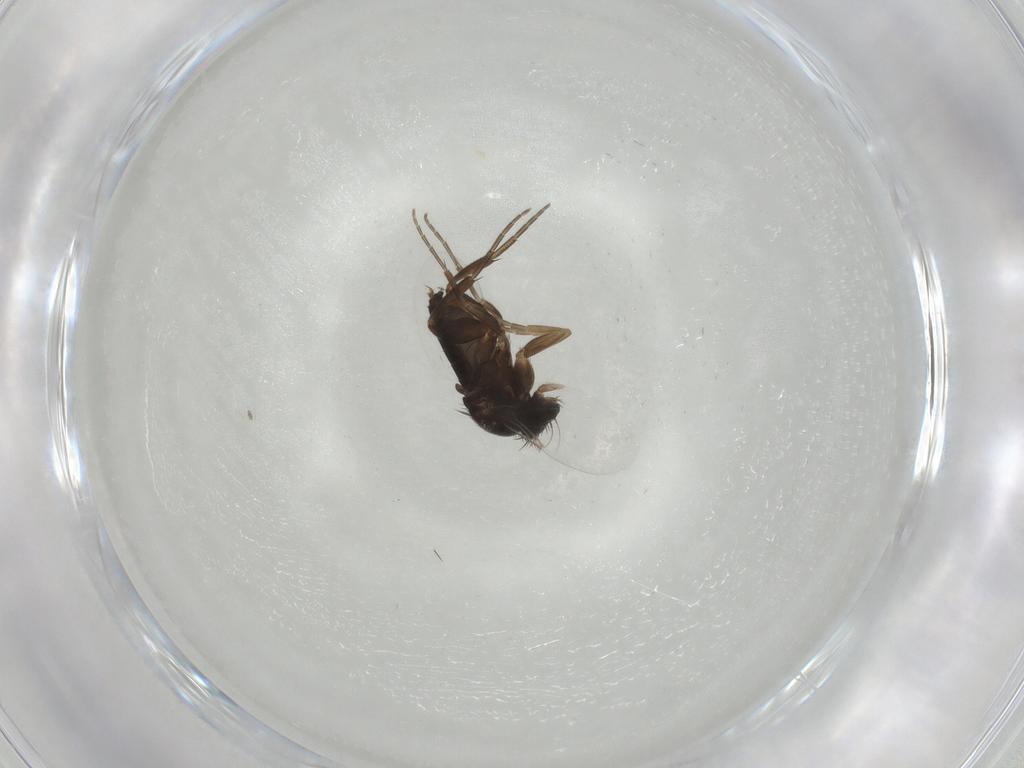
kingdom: Animalia
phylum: Arthropoda
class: Insecta
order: Diptera
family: Phoridae
